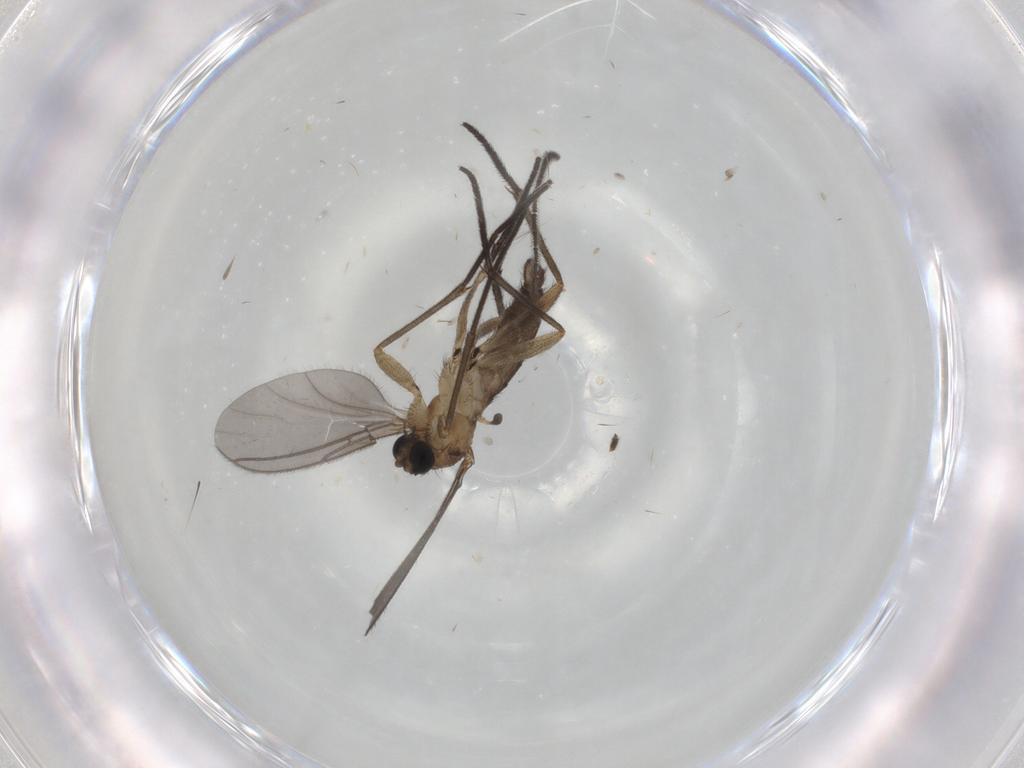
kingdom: Animalia
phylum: Arthropoda
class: Insecta
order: Diptera
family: Sciaridae
